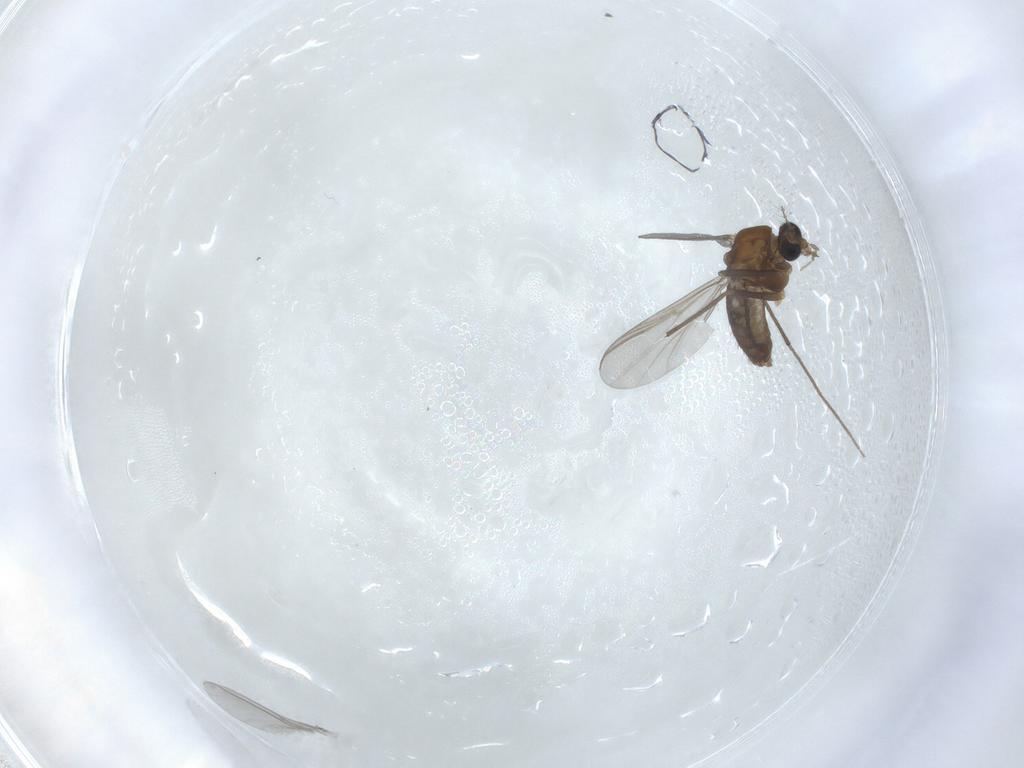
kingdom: Animalia
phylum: Arthropoda
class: Insecta
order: Diptera
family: Chironomidae
